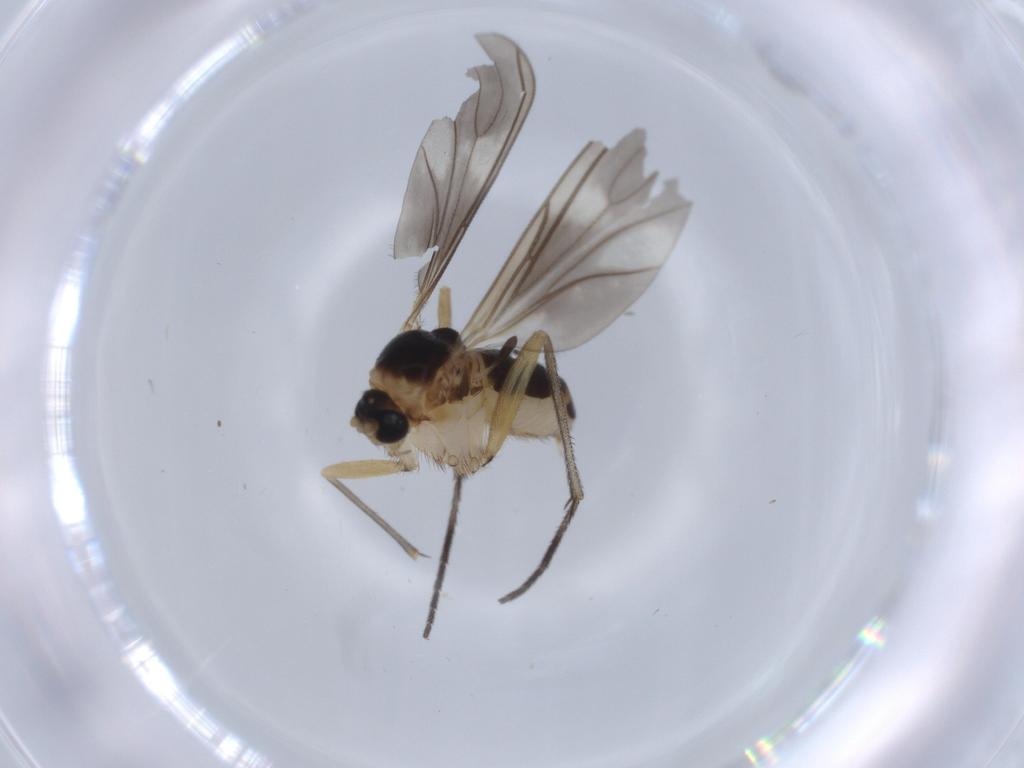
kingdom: Animalia
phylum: Arthropoda
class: Insecta
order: Diptera
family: Sciaridae
